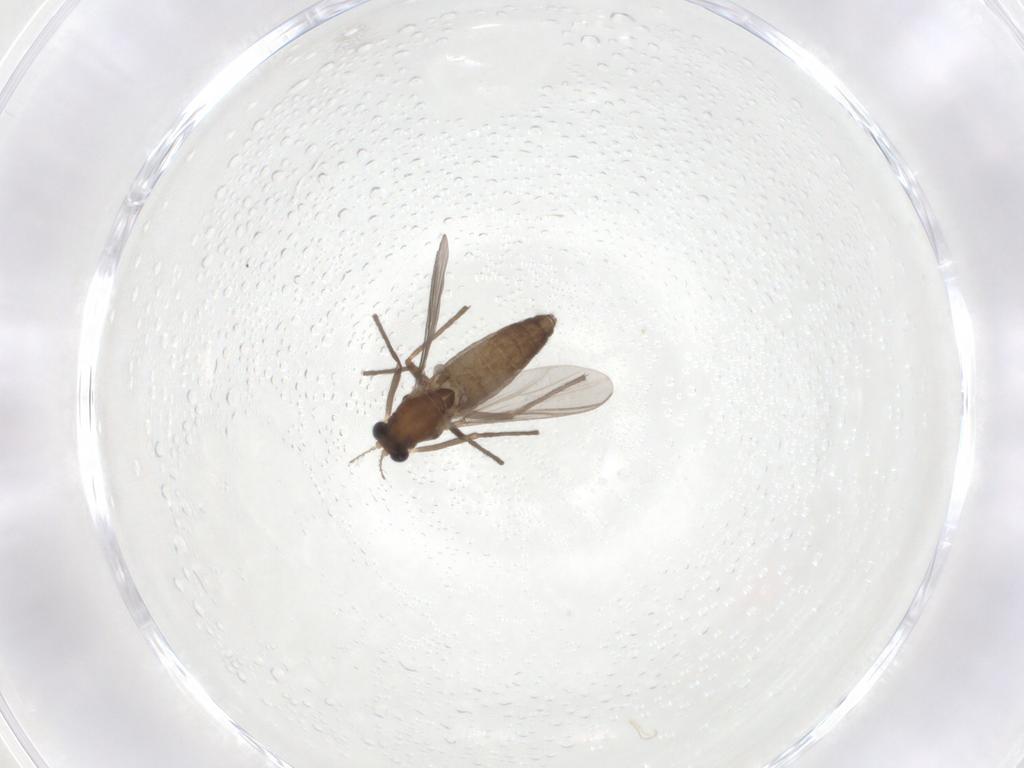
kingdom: Animalia
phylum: Arthropoda
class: Insecta
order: Diptera
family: Chironomidae
